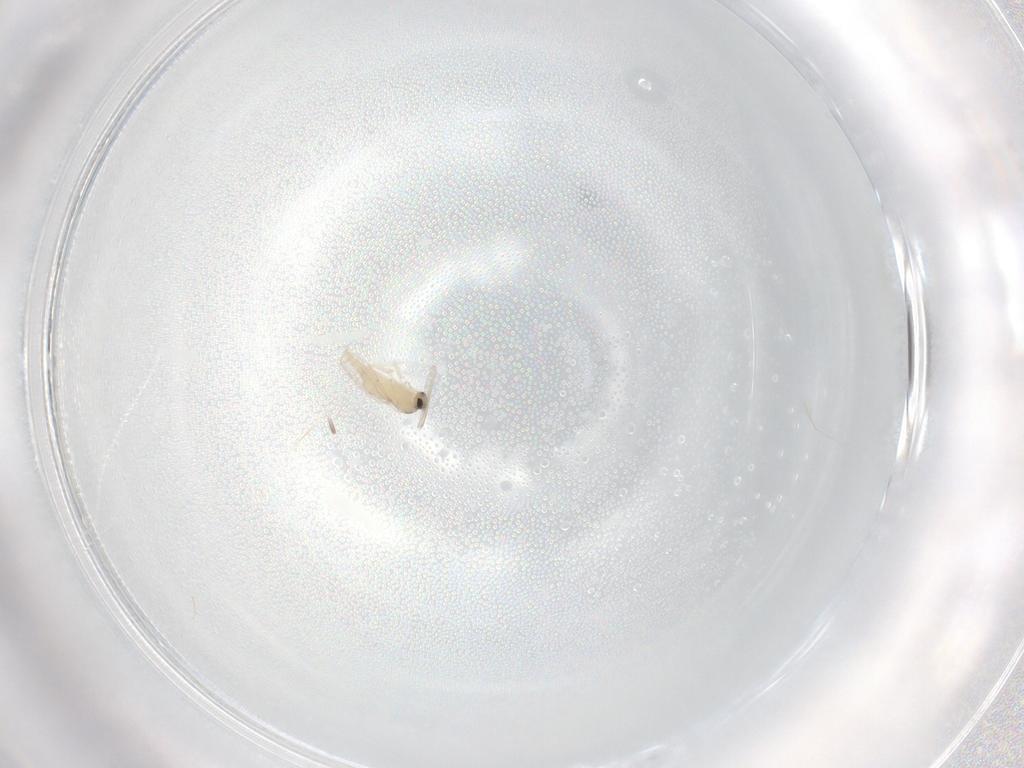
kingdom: Animalia
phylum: Arthropoda
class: Insecta
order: Diptera
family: Cecidomyiidae
